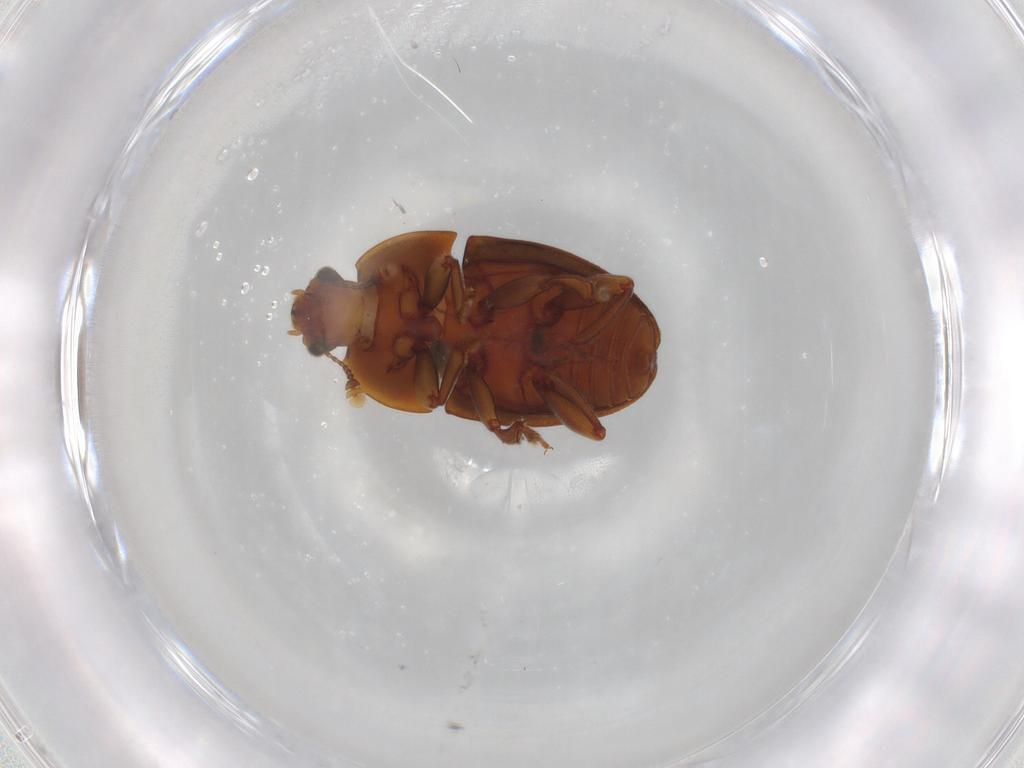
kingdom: Animalia
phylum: Arthropoda
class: Insecta
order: Coleoptera
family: Nitidulidae
